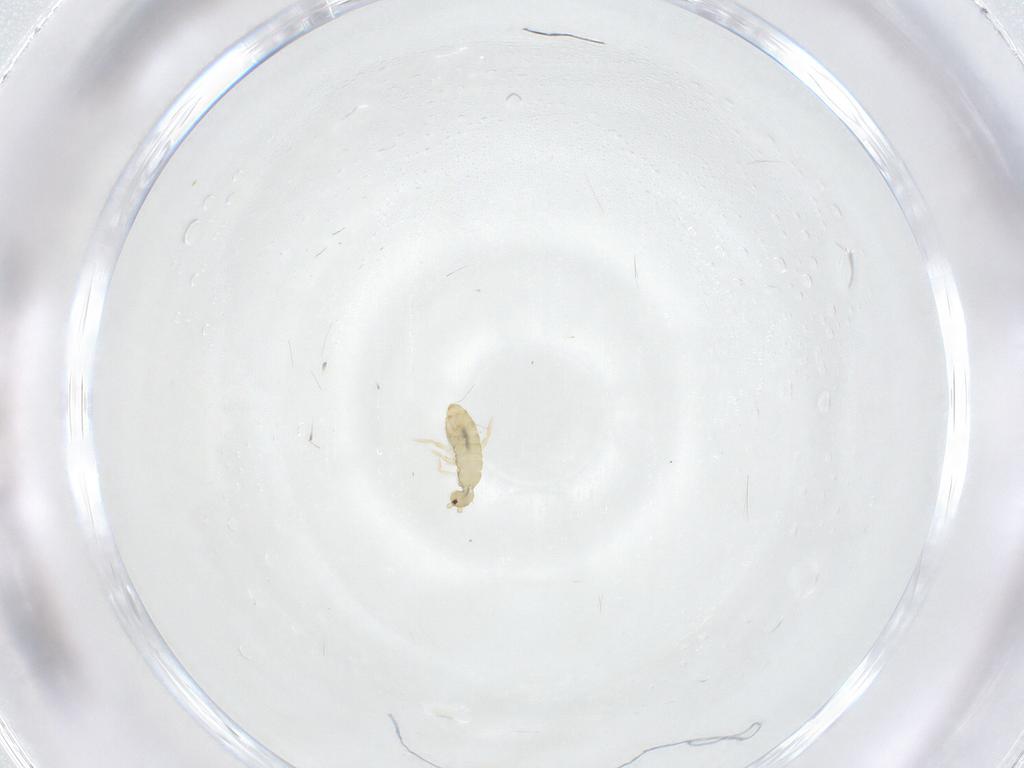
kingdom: Animalia
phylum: Arthropoda
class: Collembola
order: Entomobryomorpha
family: Entomobryidae
